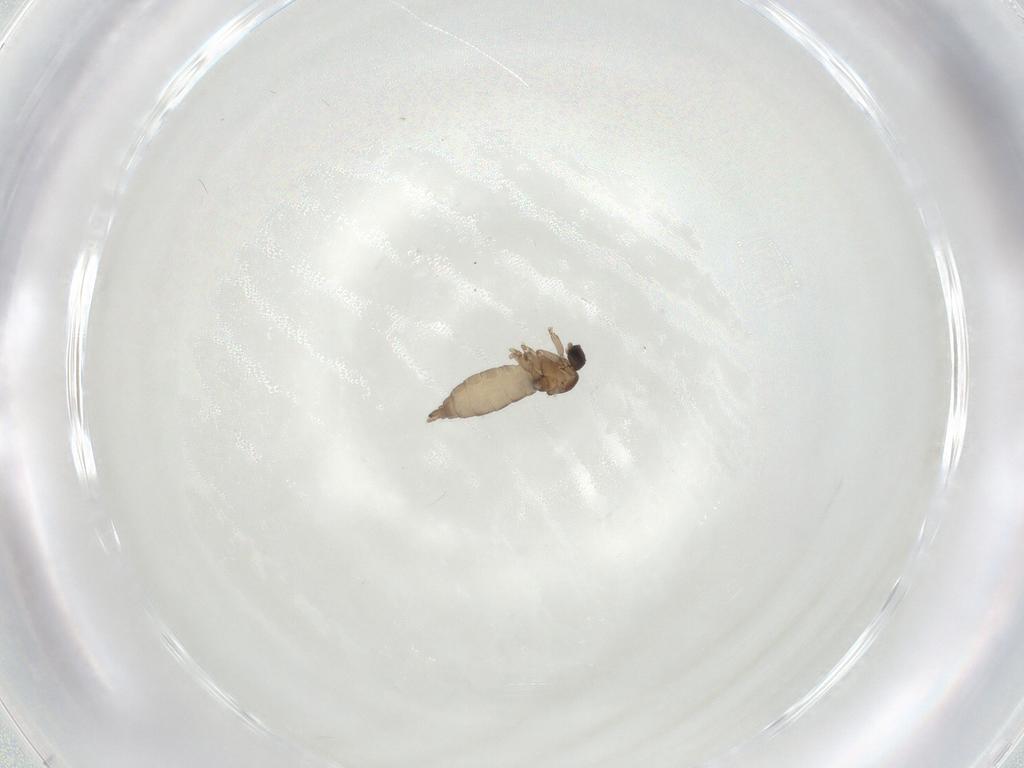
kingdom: Animalia
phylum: Arthropoda
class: Insecta
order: Diptera
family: Chironomidae
